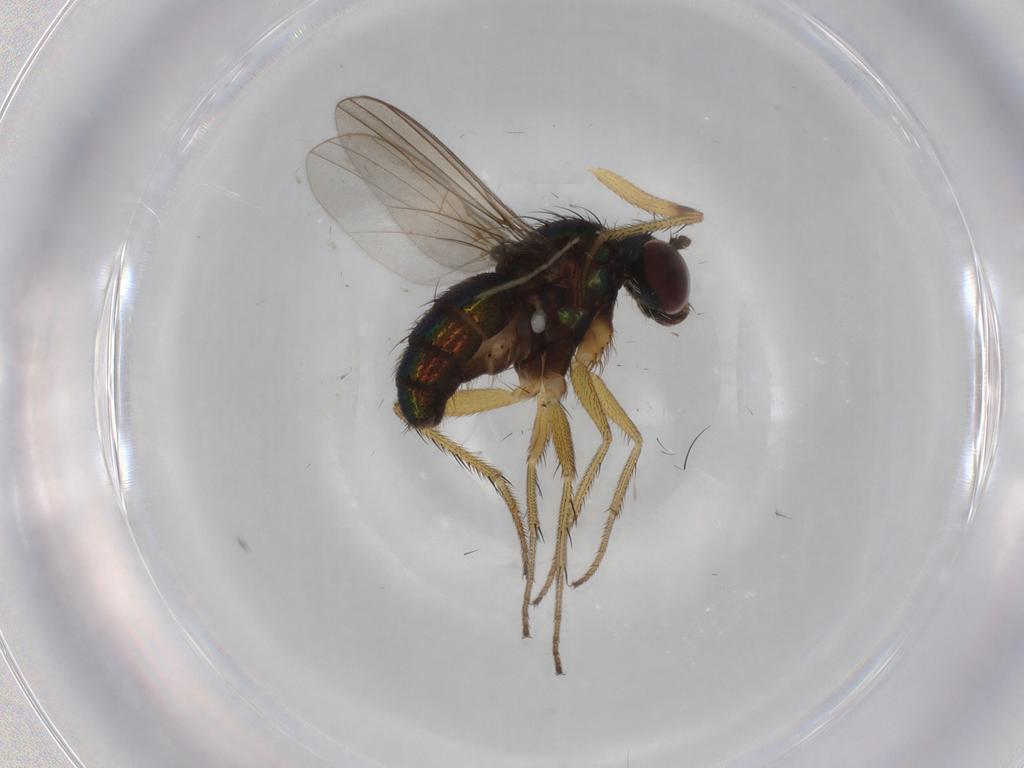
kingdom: Animalia
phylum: Arthropoda
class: Insecta
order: Diptera
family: Dolichopodidae
